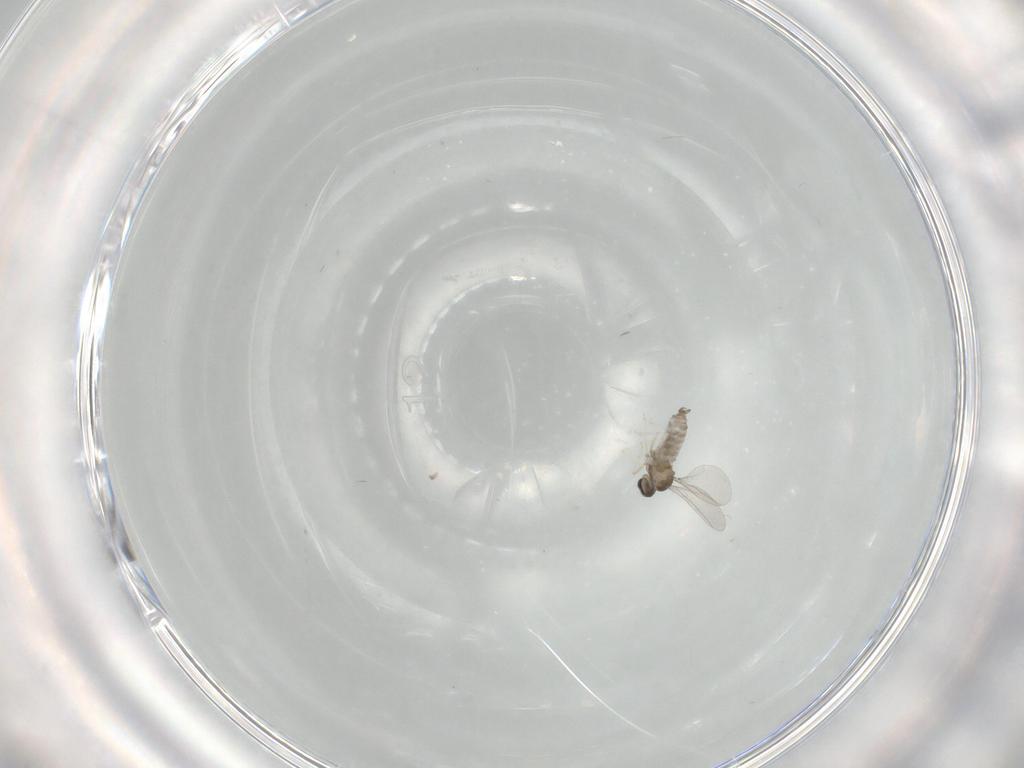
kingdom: Animalia
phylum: Arthropoda
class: Insecta
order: Diptera
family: Cecidomyiidae
